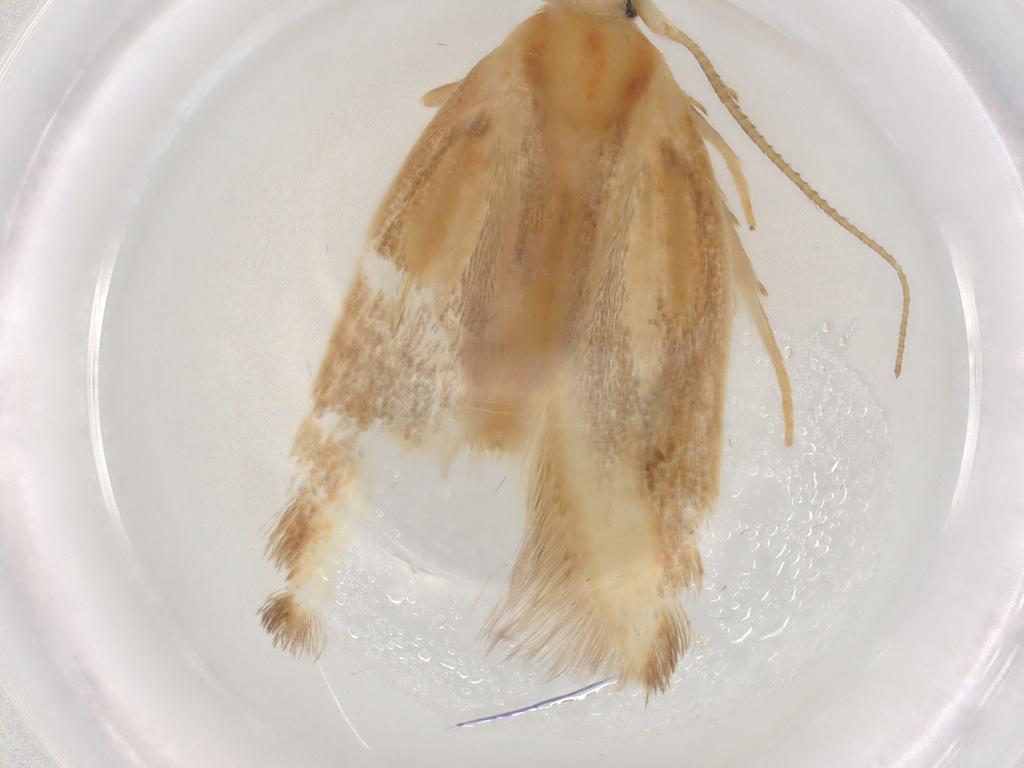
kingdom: Animalia
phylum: Arthropoda
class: Insecta
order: Lepidoptera
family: Geometridae
